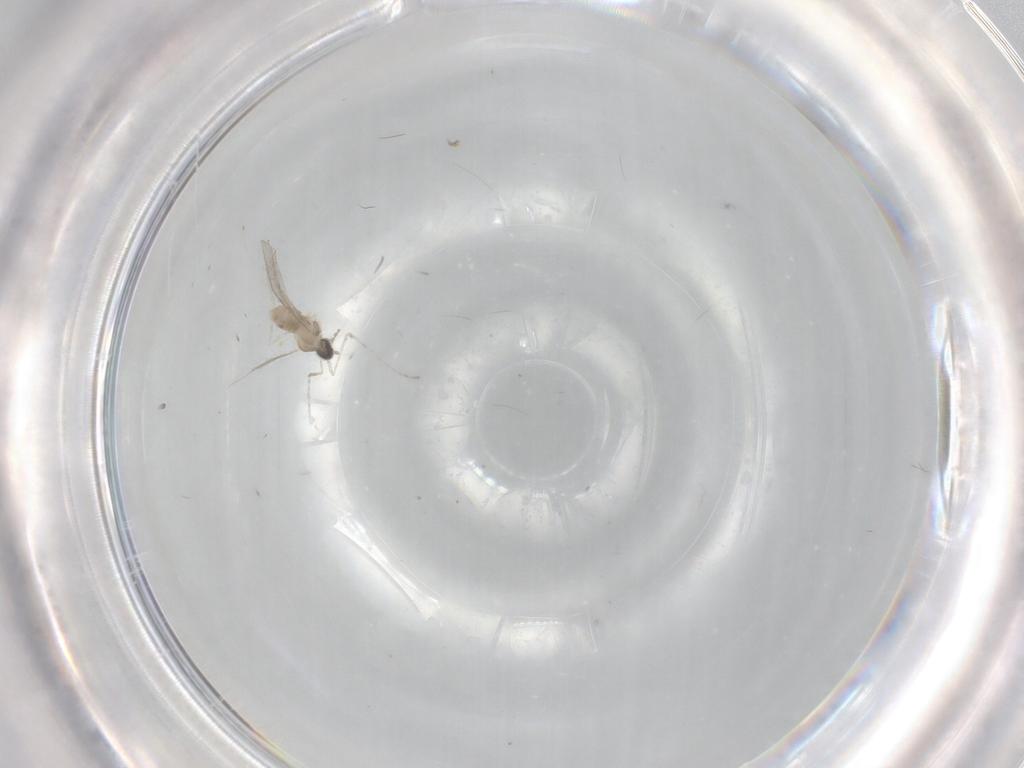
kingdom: Animalia
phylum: Arthropoda
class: Insecta
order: Diptera
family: Cecidomyiidae
